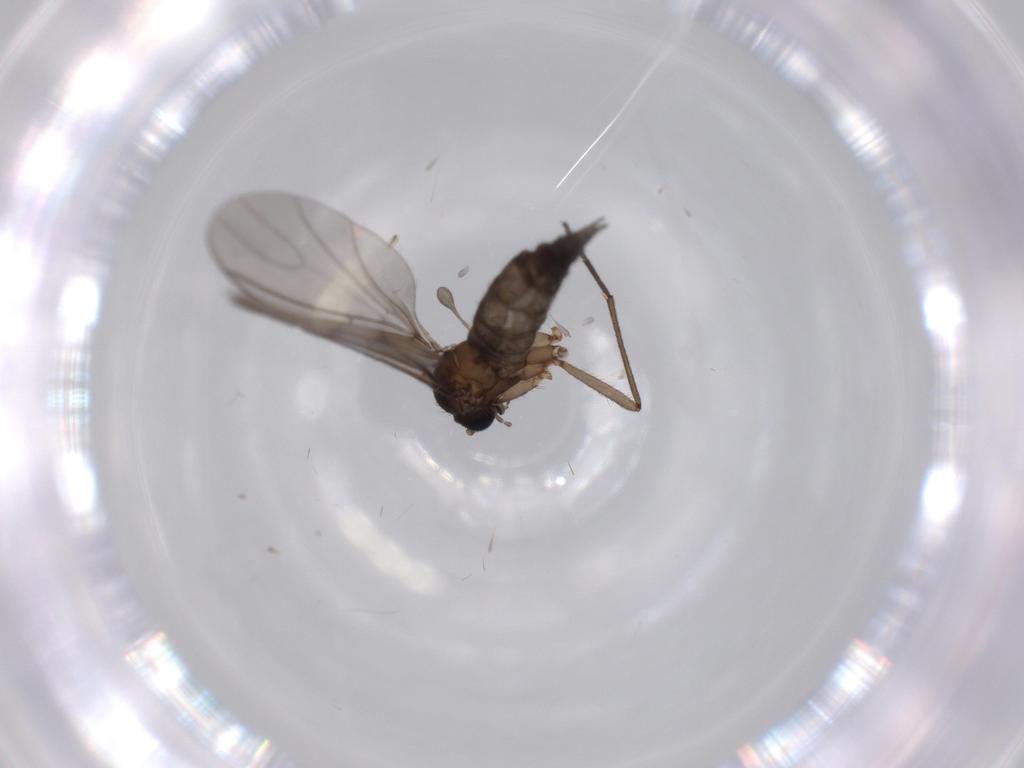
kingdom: Animalia
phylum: Arthropoda
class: Insecta
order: Diptera
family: Sciaridae
